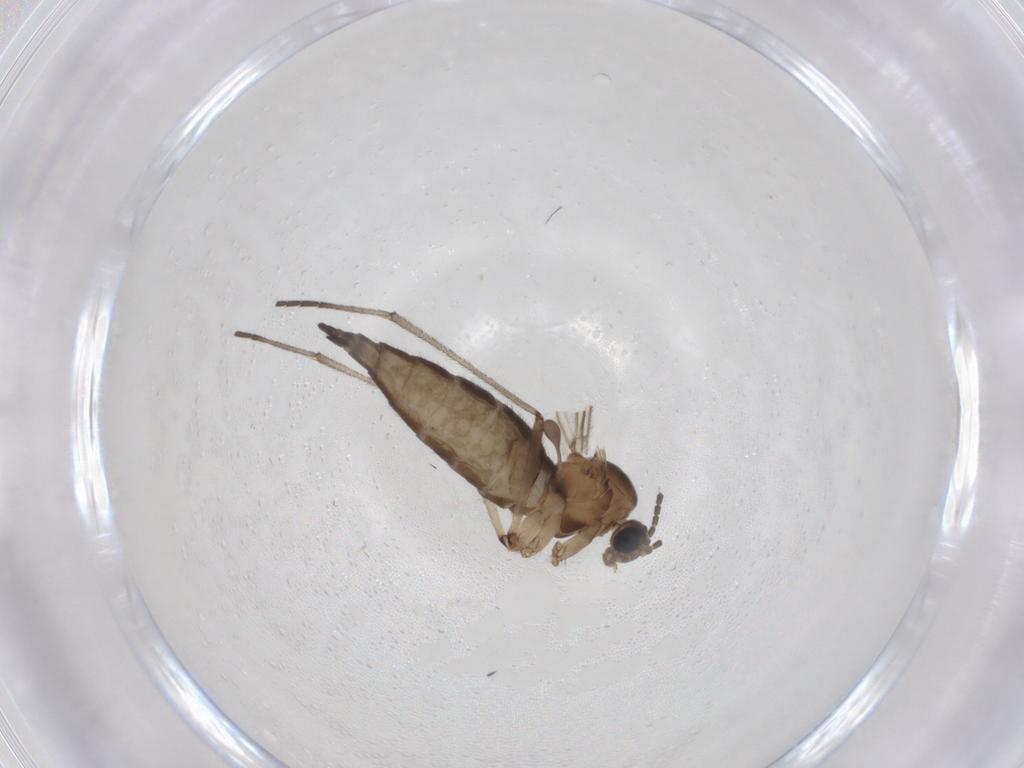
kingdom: Animalia
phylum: Arthropoda
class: Insecta
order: Diptera
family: Sciaridae
